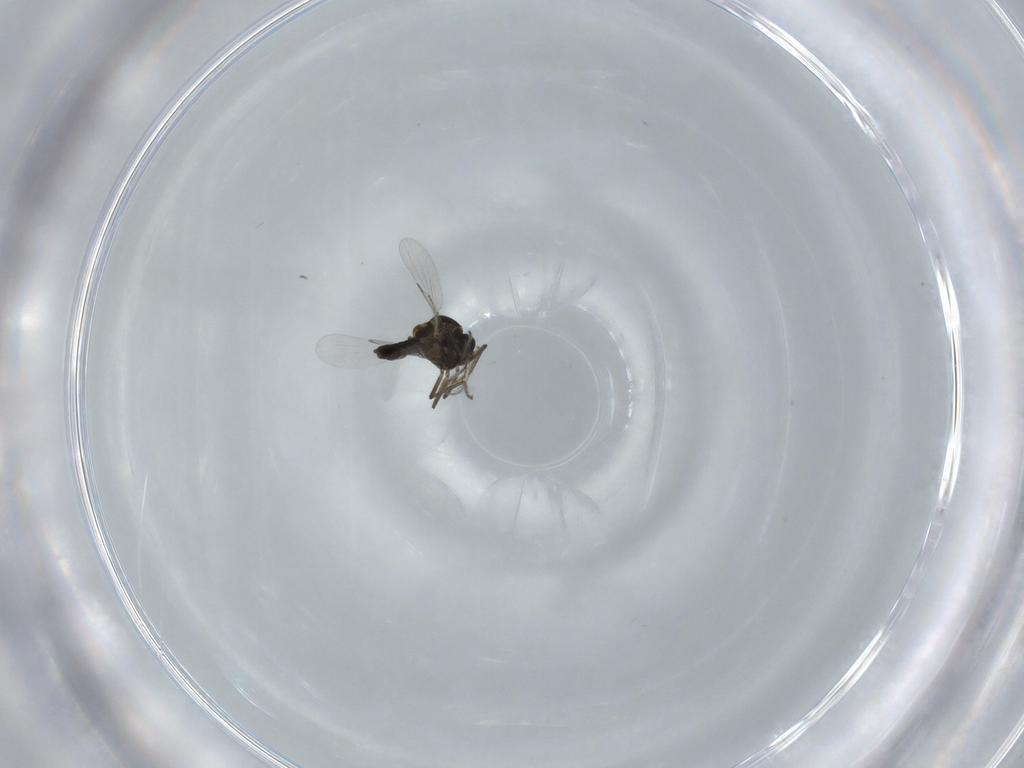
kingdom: Animalia
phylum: Arthropoda
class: Insecta
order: Diptera
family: Ceratopogonidae
